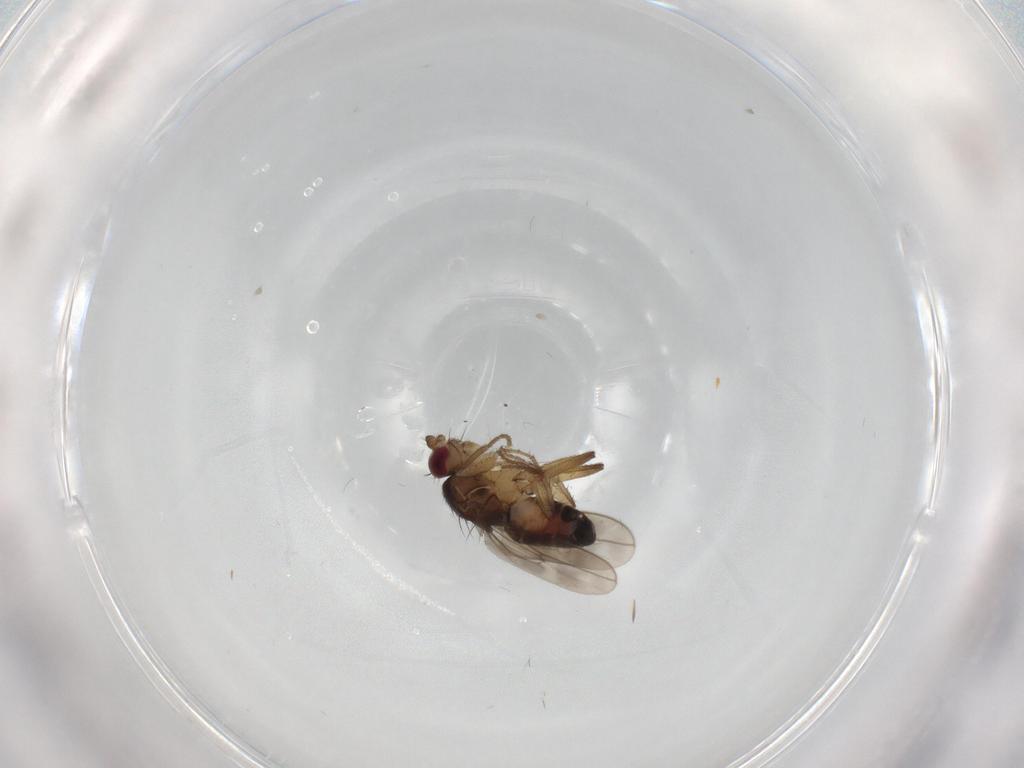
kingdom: Animalia
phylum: Arthropoda
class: Insecta
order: Diptera
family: Sphaeroceridae
